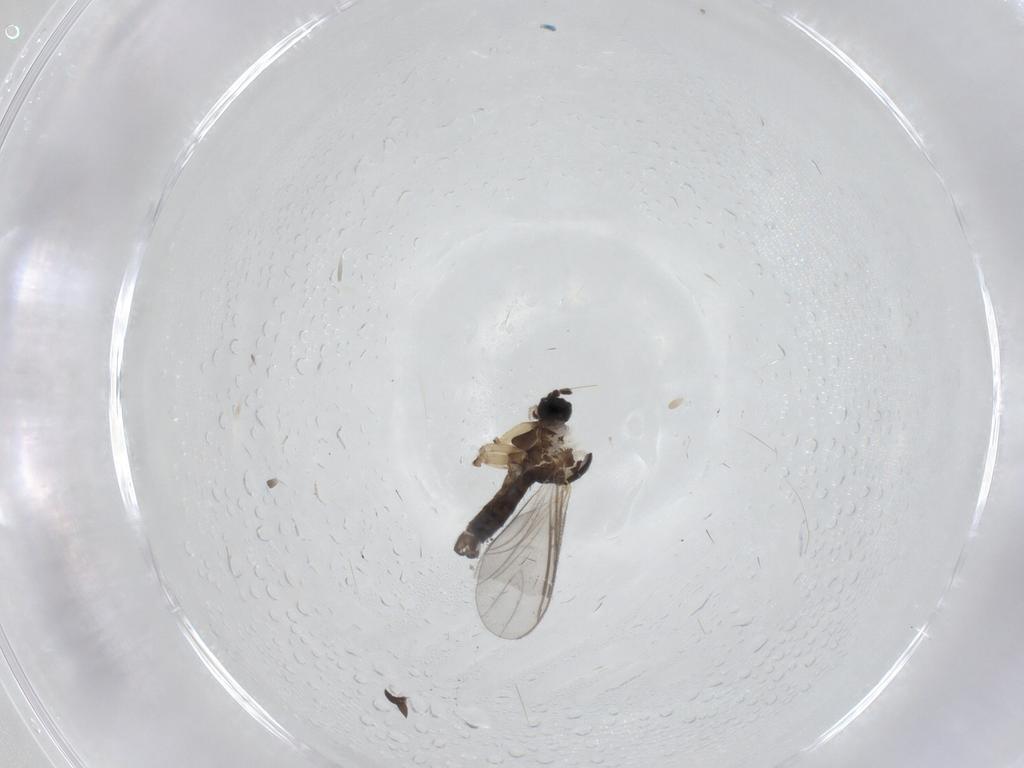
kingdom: Animalia
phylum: Arthropoda
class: Insecta
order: Diptera
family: Sciaridae
